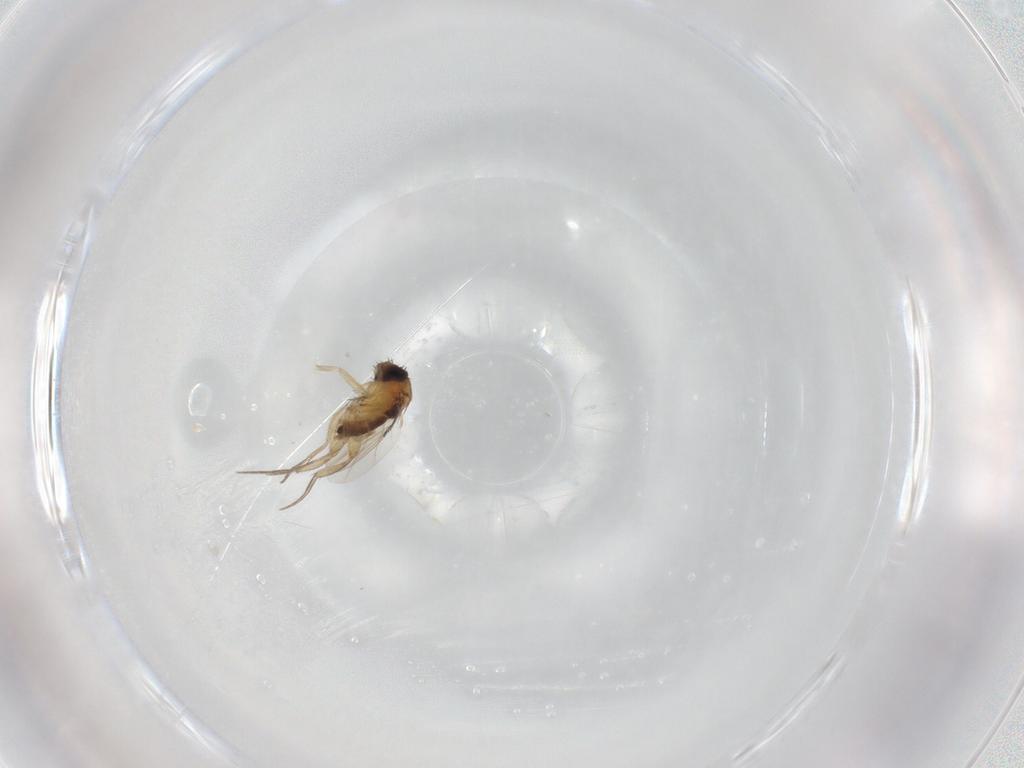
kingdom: Animalia
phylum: Arthropoda
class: Insecta
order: Diptera
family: Phoridae
